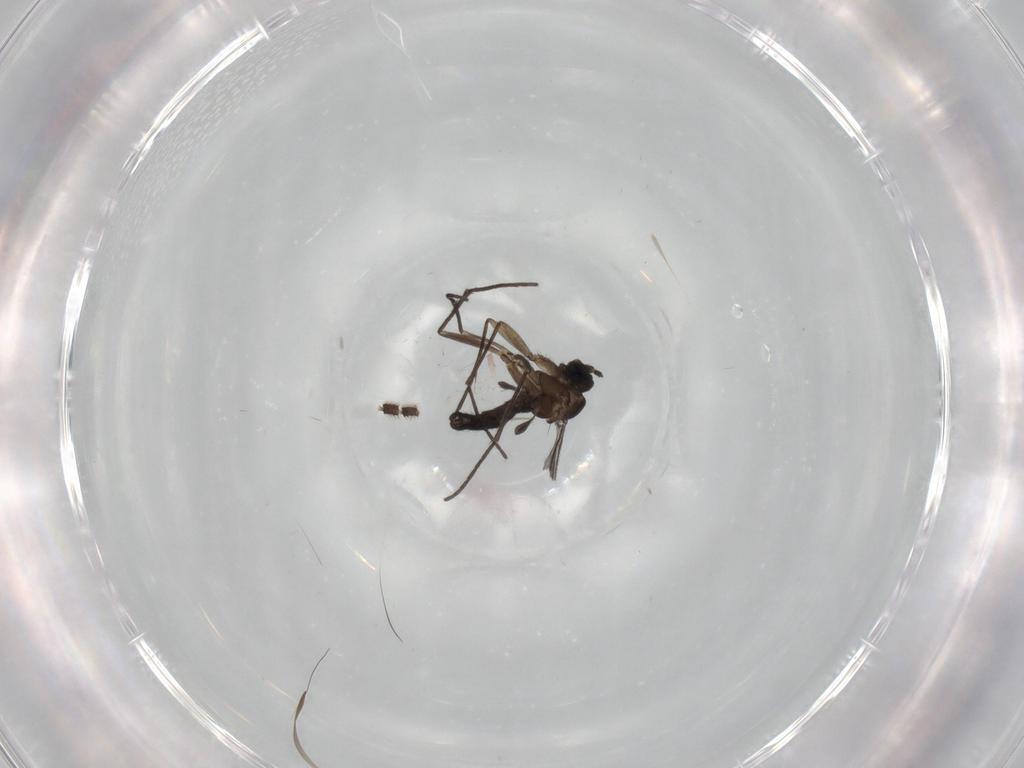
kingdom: Animalia
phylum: Arthropoda
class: Insecta
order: Diptera
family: Sciaridae
